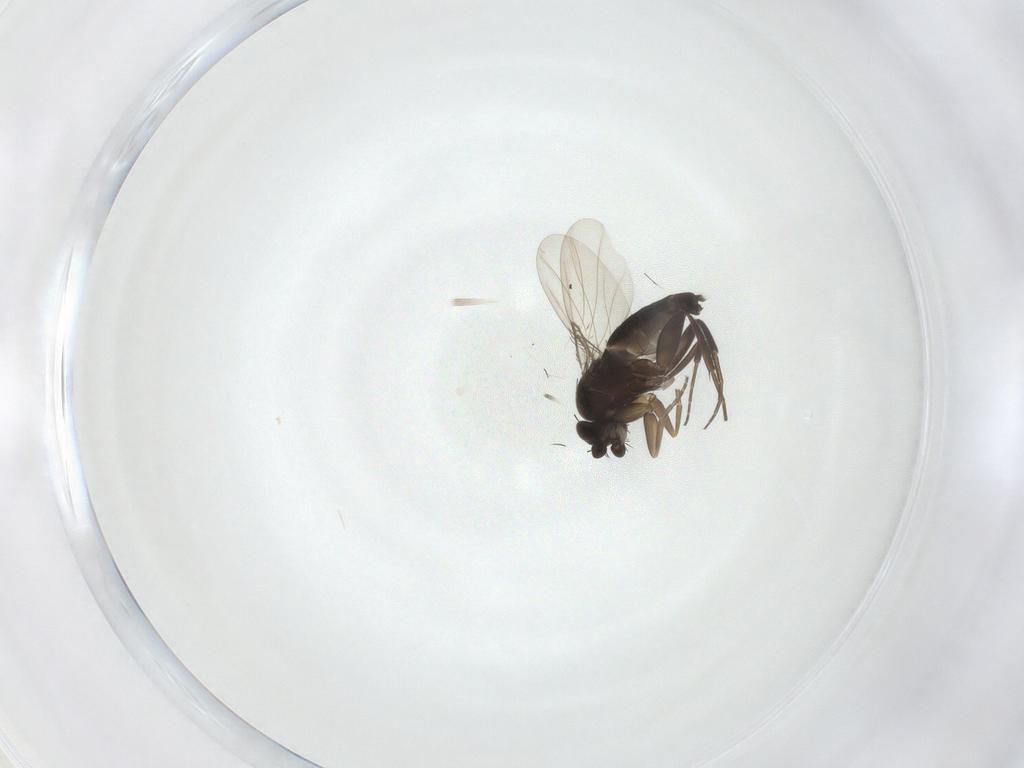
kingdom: Animalia
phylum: Arthropoda
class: Insecta
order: Diptera
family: Phoridae
